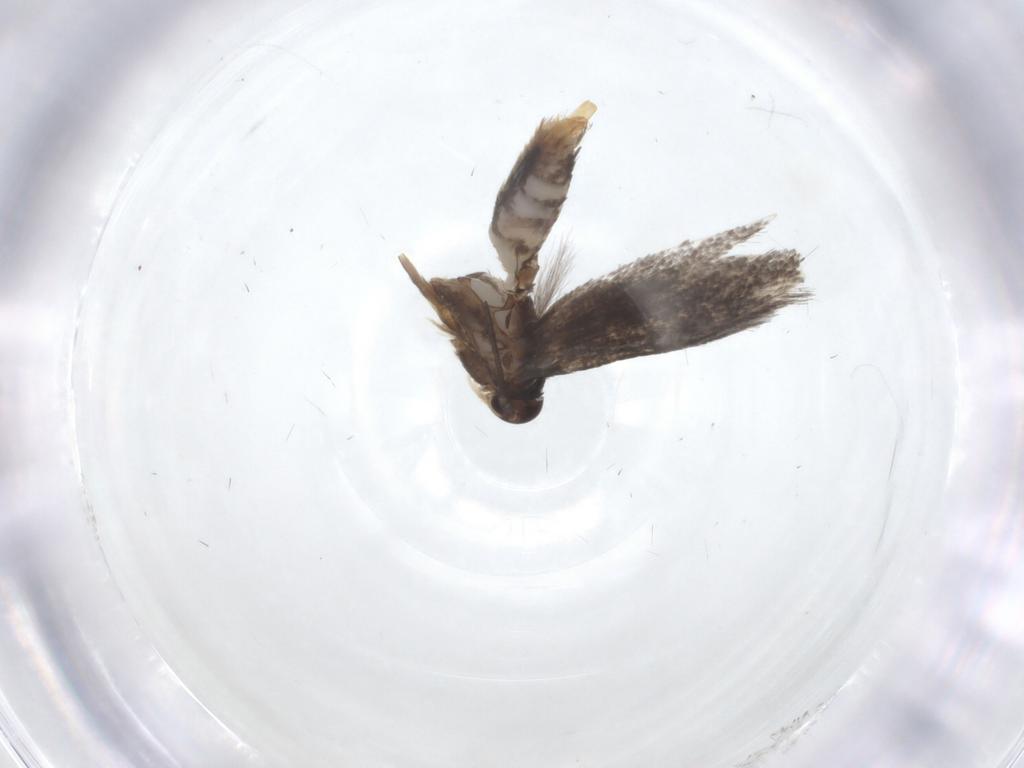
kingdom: Animalia
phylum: Arthropoda
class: Insecta
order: Lepidoptera
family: Elachistidae
